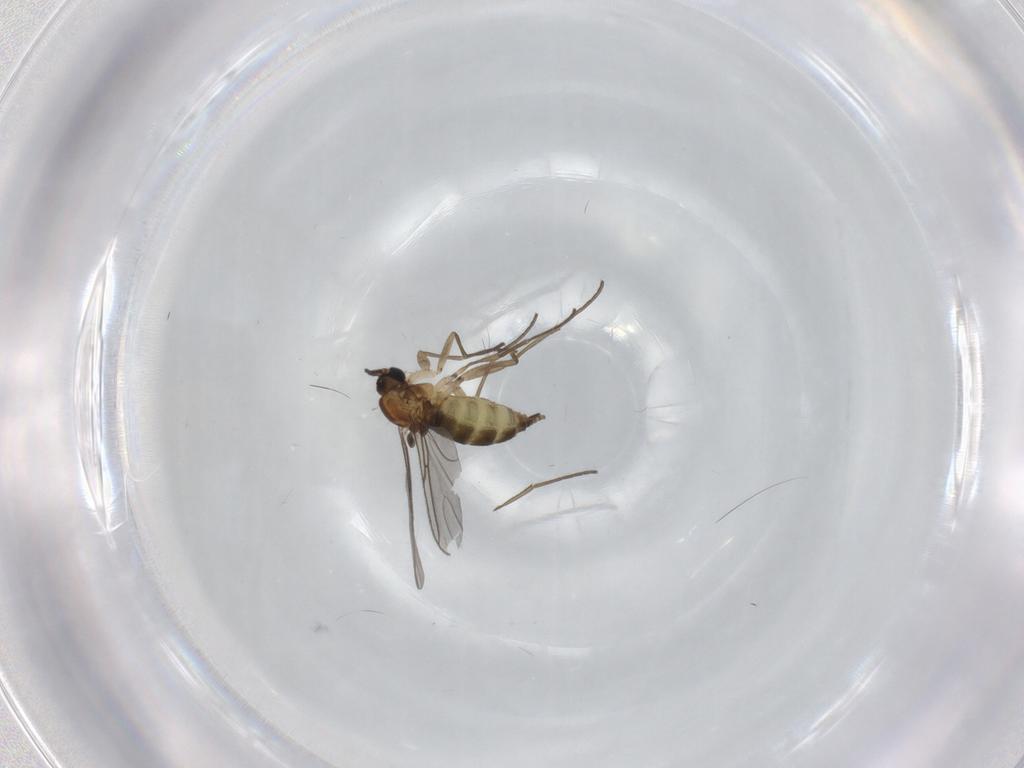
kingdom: Animalia
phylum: Arthropoda
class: Insecta
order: Diptera
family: Sciaridae
